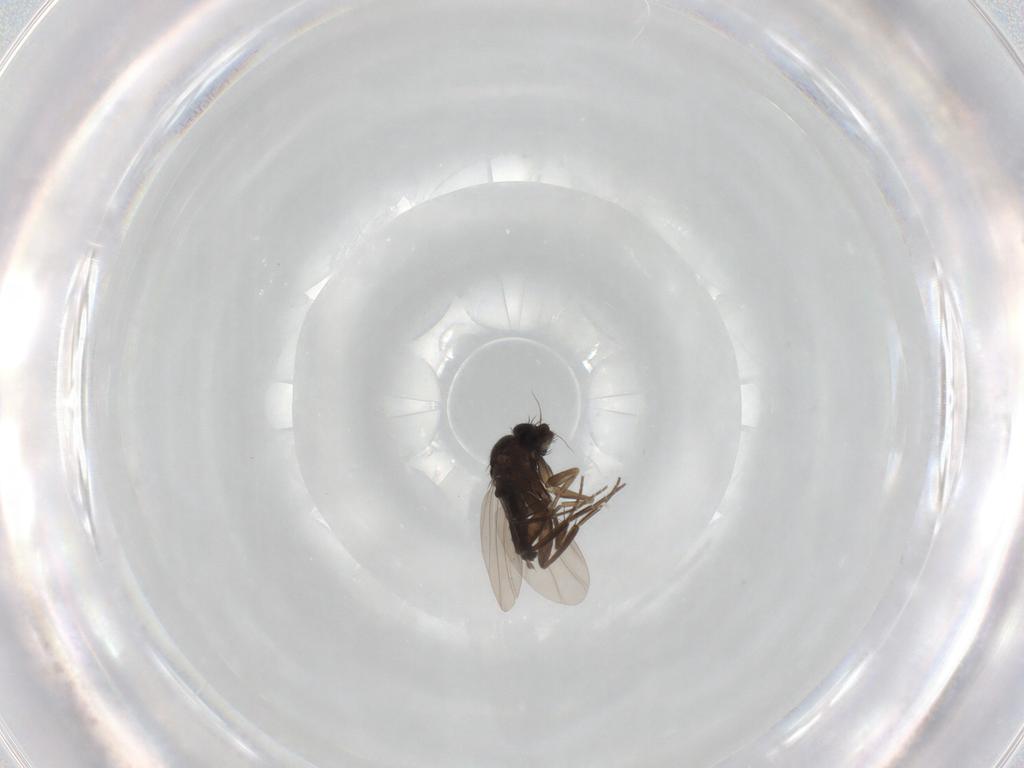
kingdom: Animalia
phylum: Arthropoda
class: Insecta
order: Diptera
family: Phoridae
